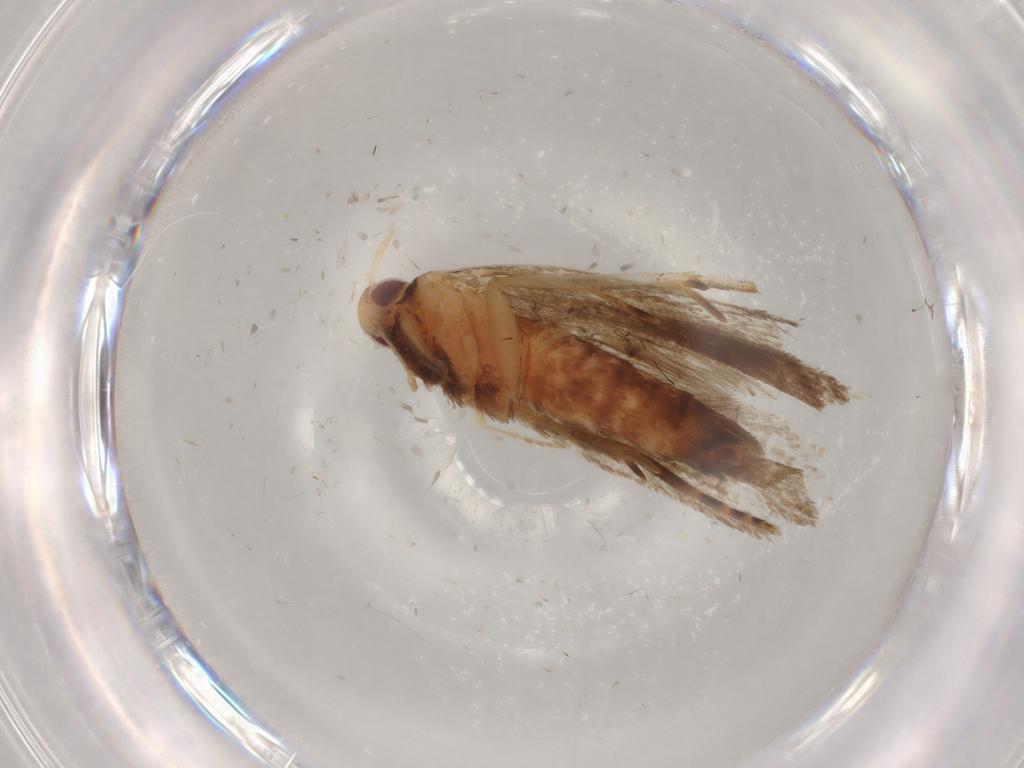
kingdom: Animalia
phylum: Arthropoda
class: Insecta
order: Lepidoptera
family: Gelechiidae
